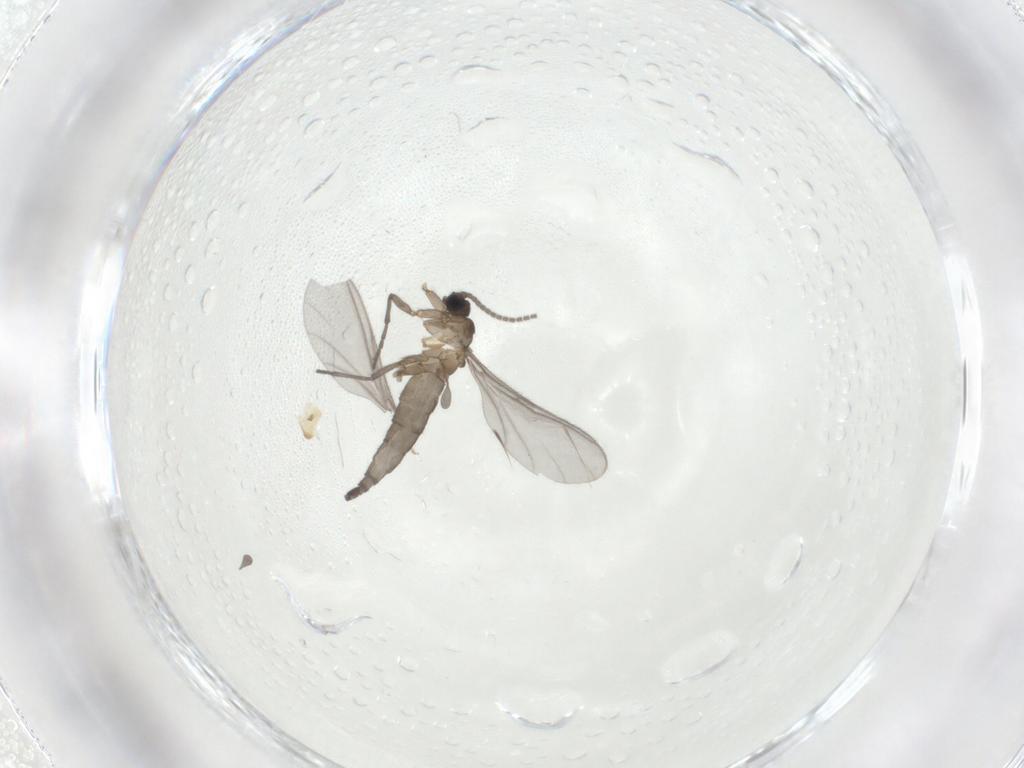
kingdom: Animalia
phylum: Arthropoda
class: Insecta
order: Diptera
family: Sciaridae
